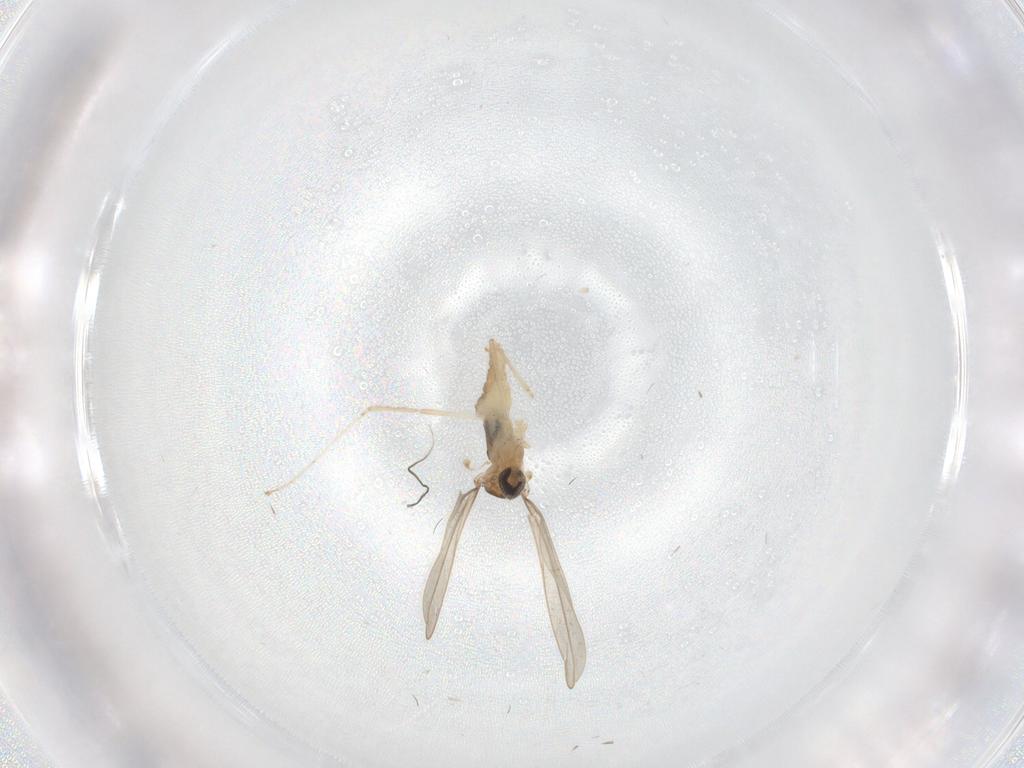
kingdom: Animalia
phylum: Arthropoda
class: Insecta
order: Diptera
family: Cecidomyiidae
